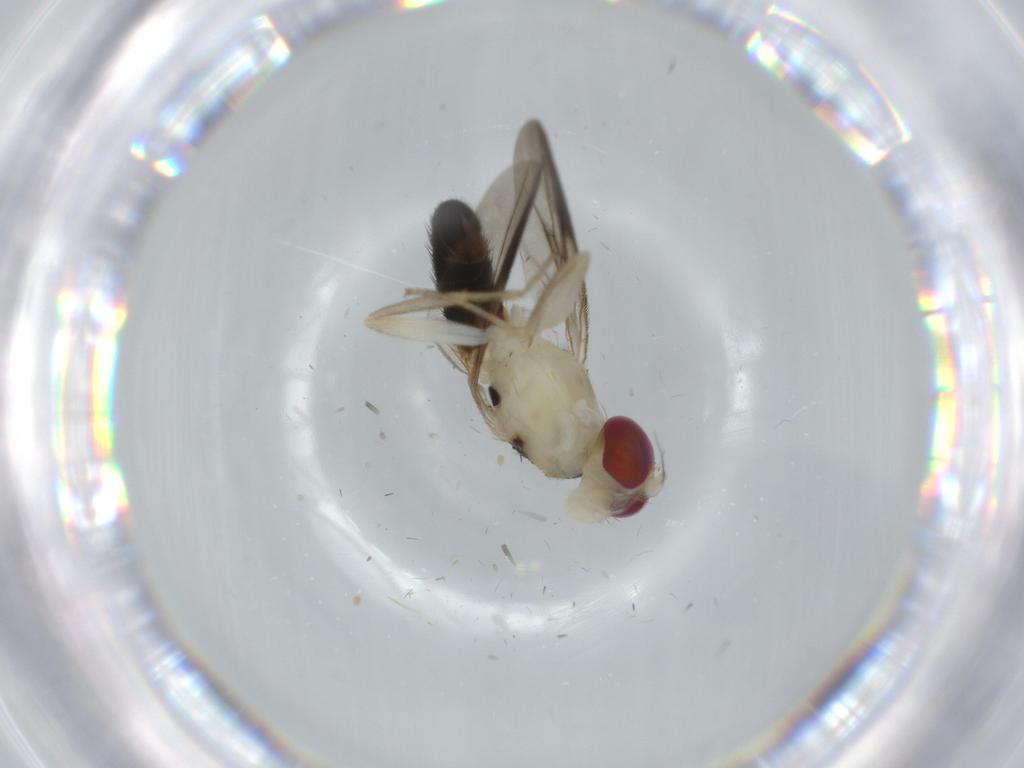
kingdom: Animalia
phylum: Arthropoda
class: Insecta
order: Diptera
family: Clusiidae
